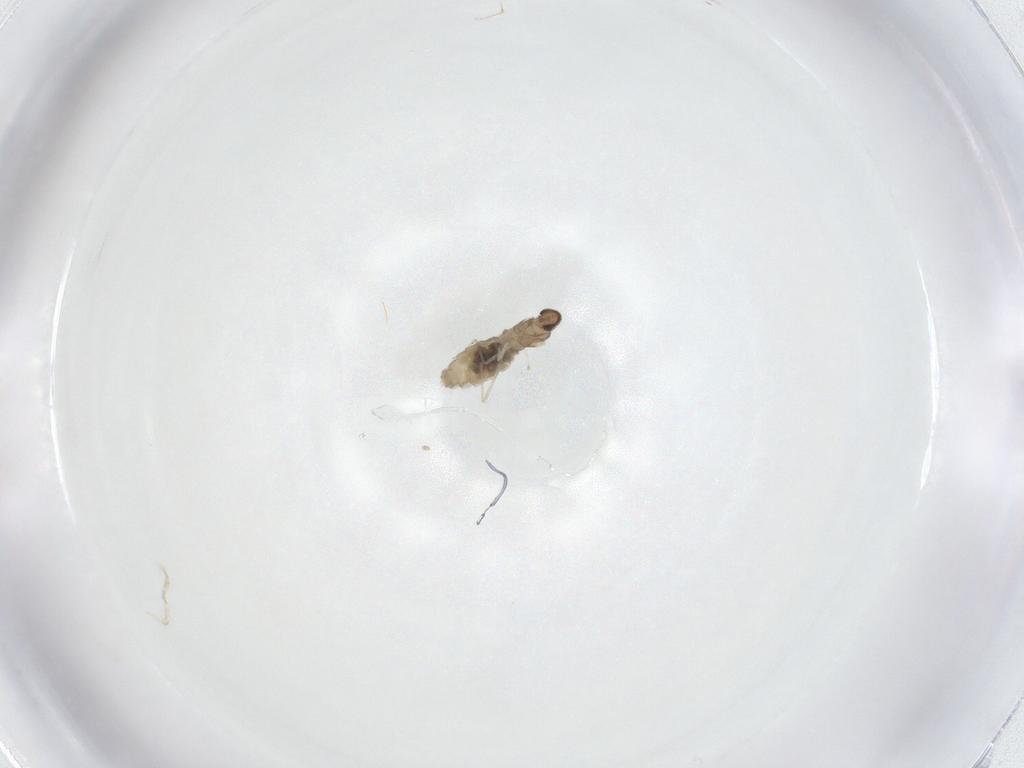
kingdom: Animalia
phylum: Arthropoda
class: Insecta
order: Diptera
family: Cecidomyiidae
